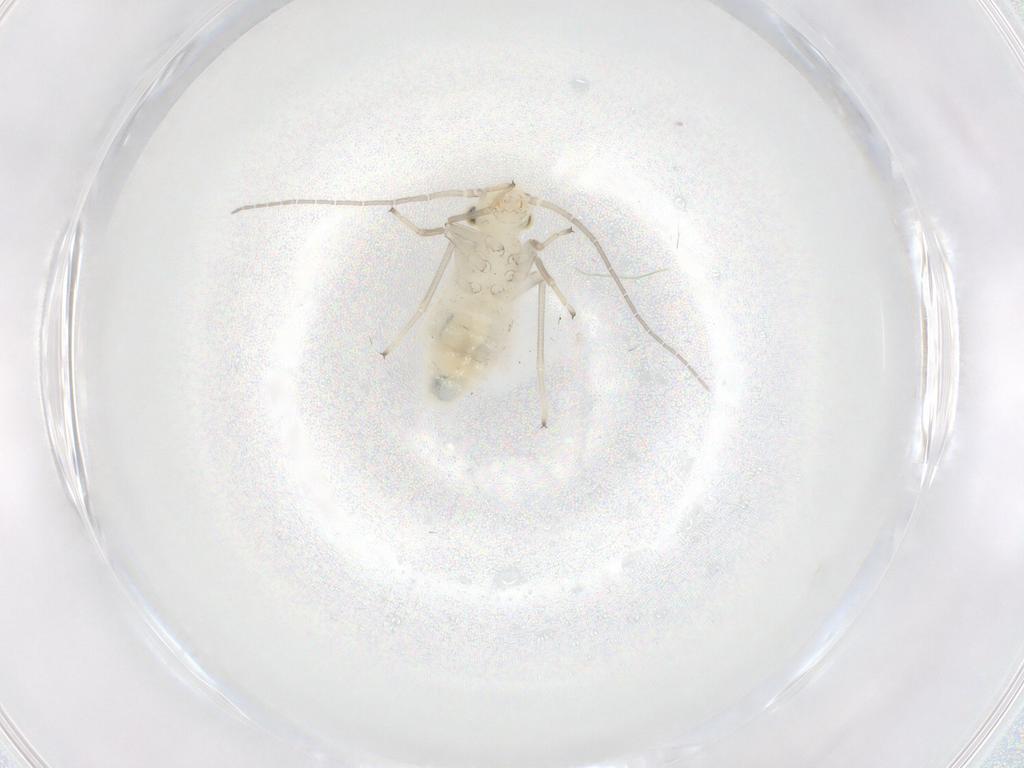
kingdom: Animalia
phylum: Arthropoda
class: Insecta
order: Psocodea
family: Caeciliusidae
